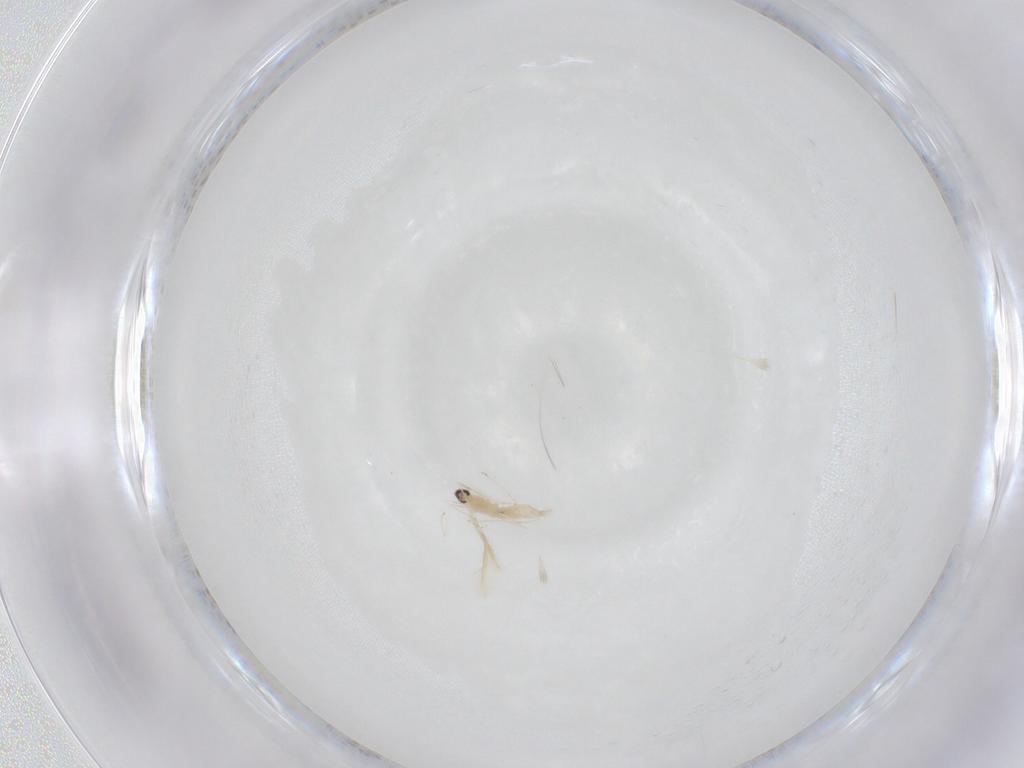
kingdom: Animalia
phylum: Arthropoda
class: Insecta
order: Diptera
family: Cecidomyiidae
